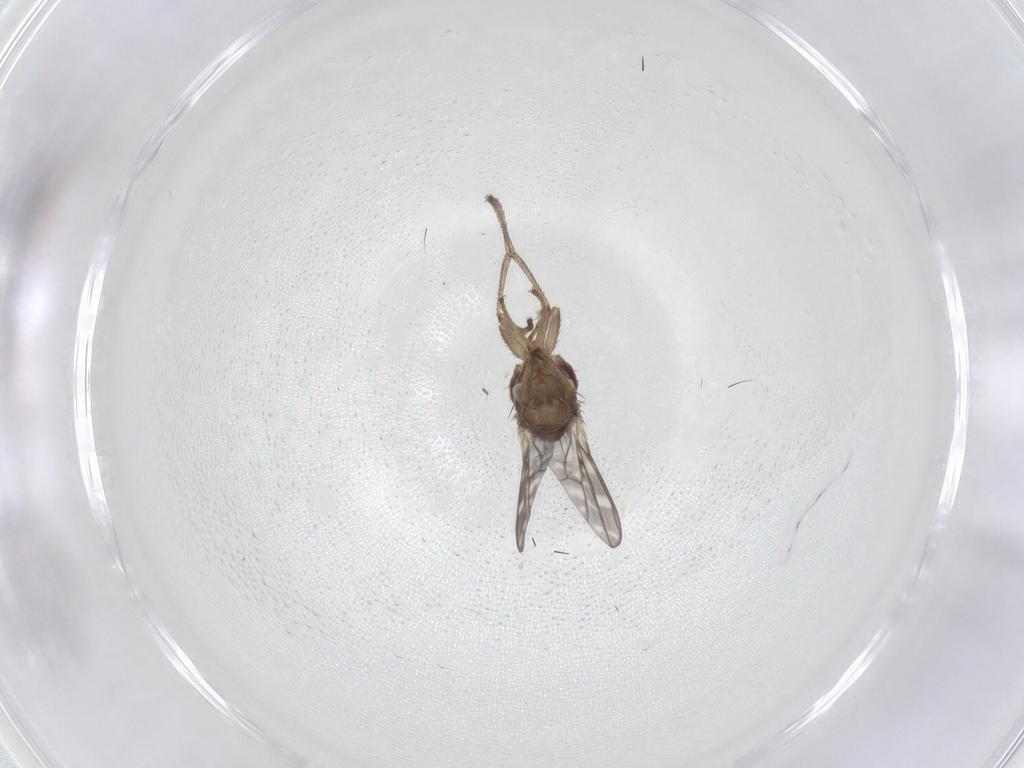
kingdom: Animalia
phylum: Arthropoda
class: Insecta
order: Diptera
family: Ephydridae
